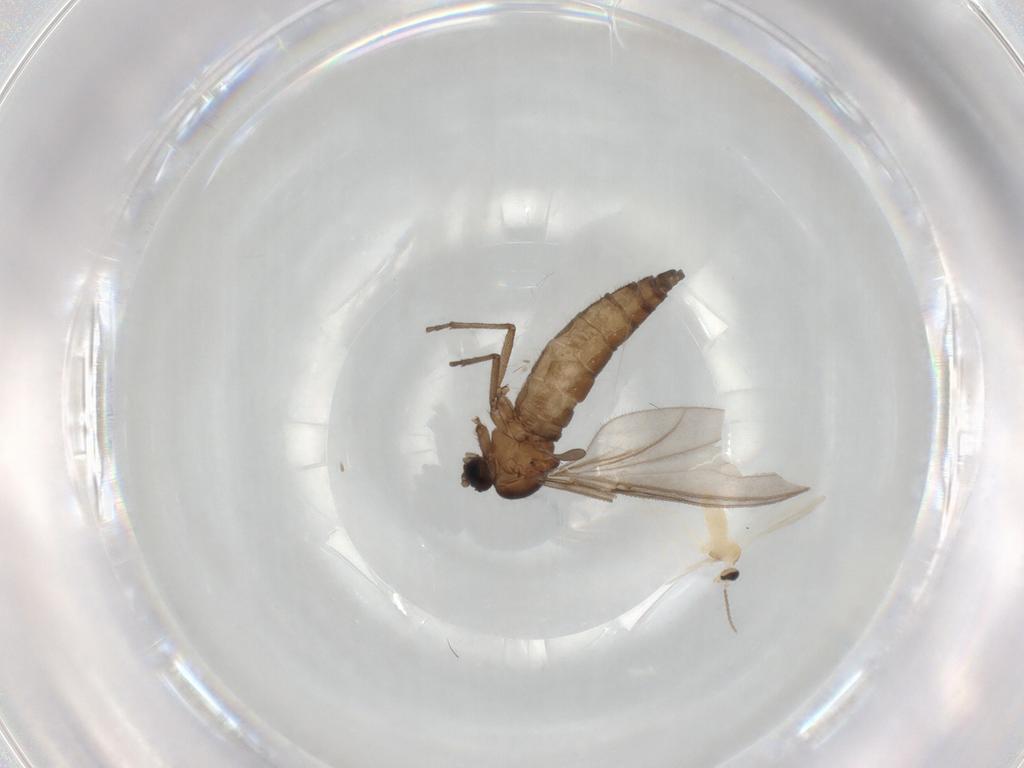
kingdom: Animalia
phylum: Arthropoda
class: Insecta
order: Diptera
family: Sciaridae
